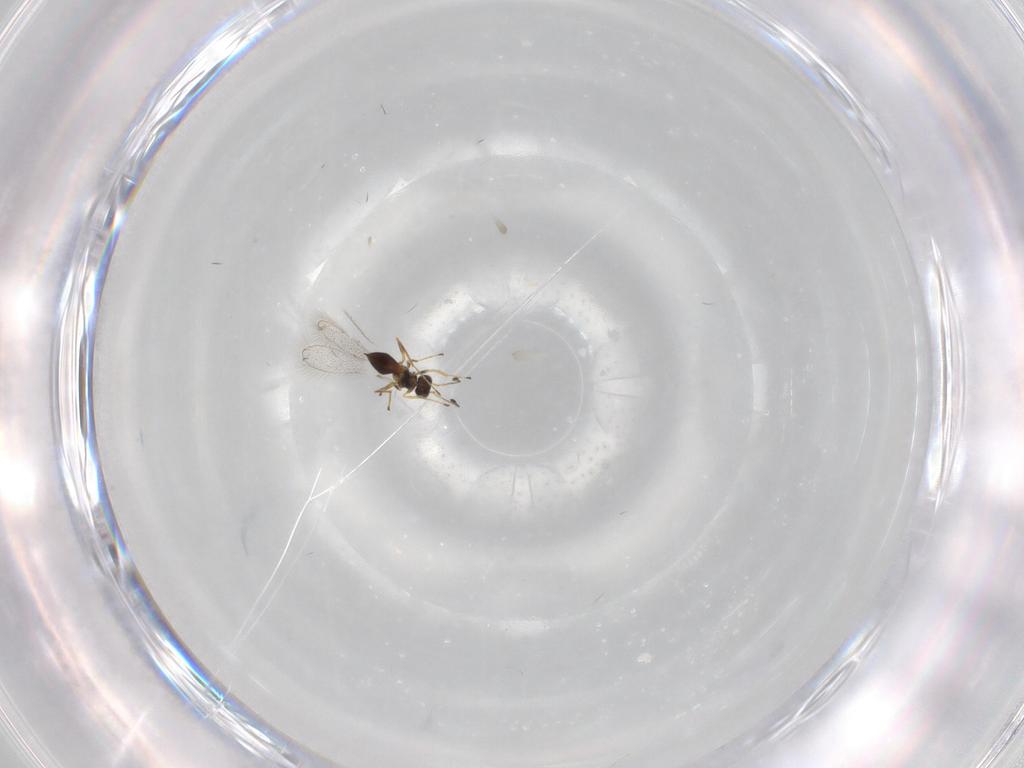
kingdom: Animalia
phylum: Arthropoda
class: Insecta
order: Hymenoptera
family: Mymaridae
